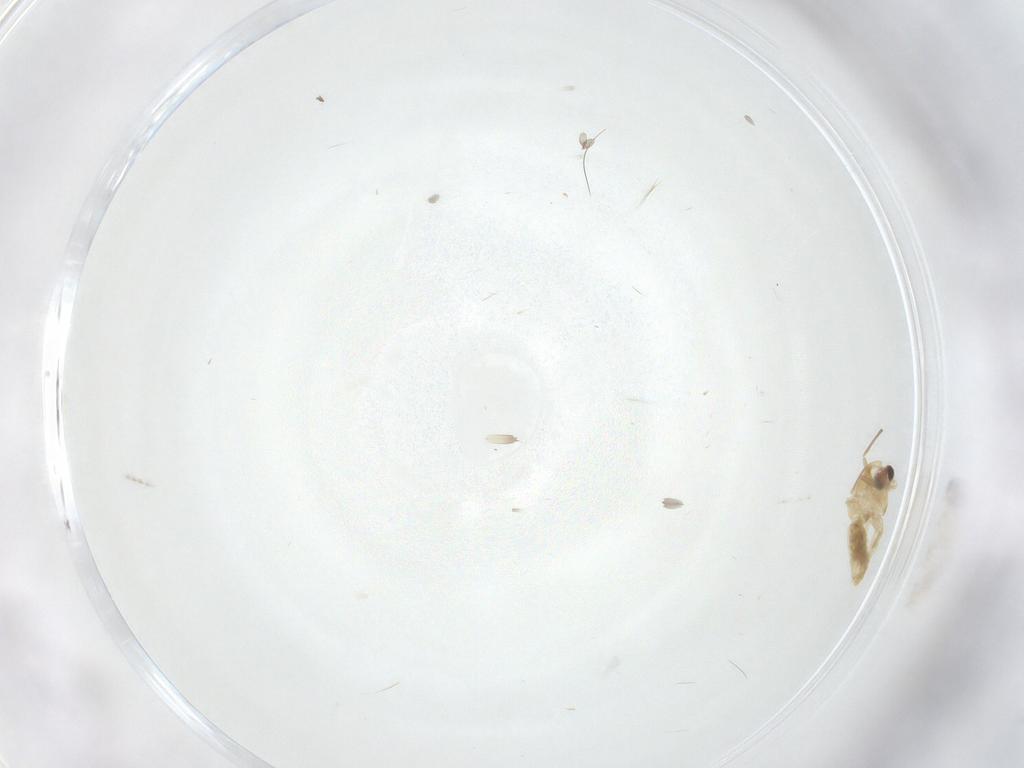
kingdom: Animalia
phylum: Arthropoda
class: Insecta
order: Diptera
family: Chironomidae
